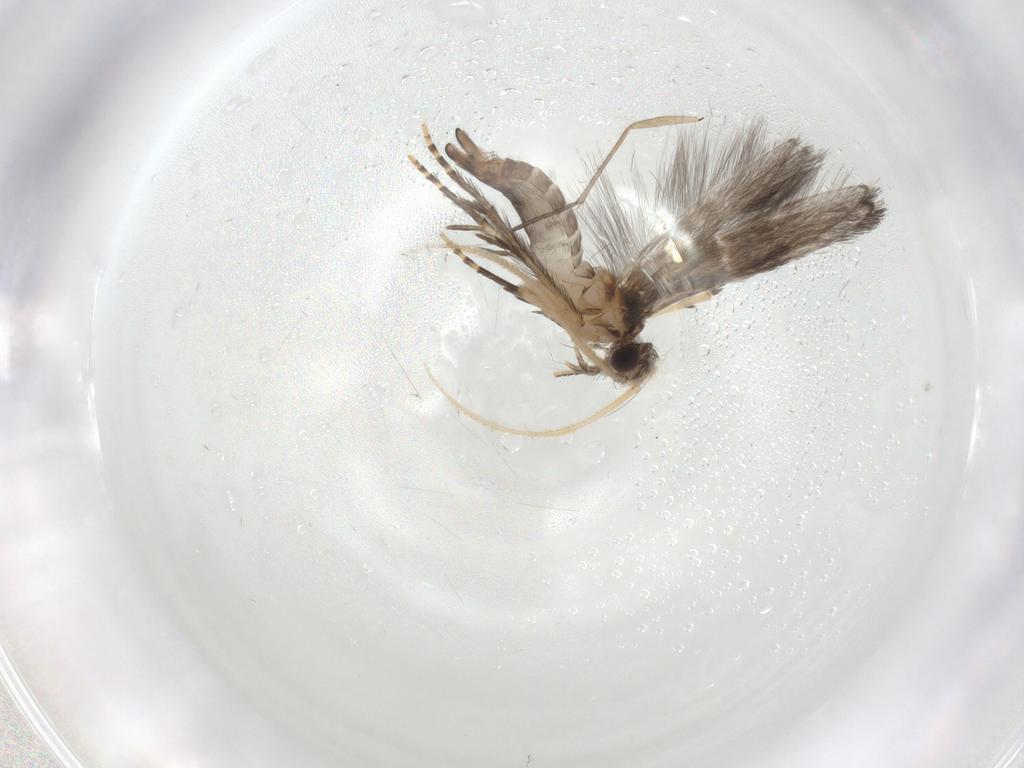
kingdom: Animalia
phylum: Arthropoda
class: Insecta
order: Trichoptera
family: Hydroptilidae
